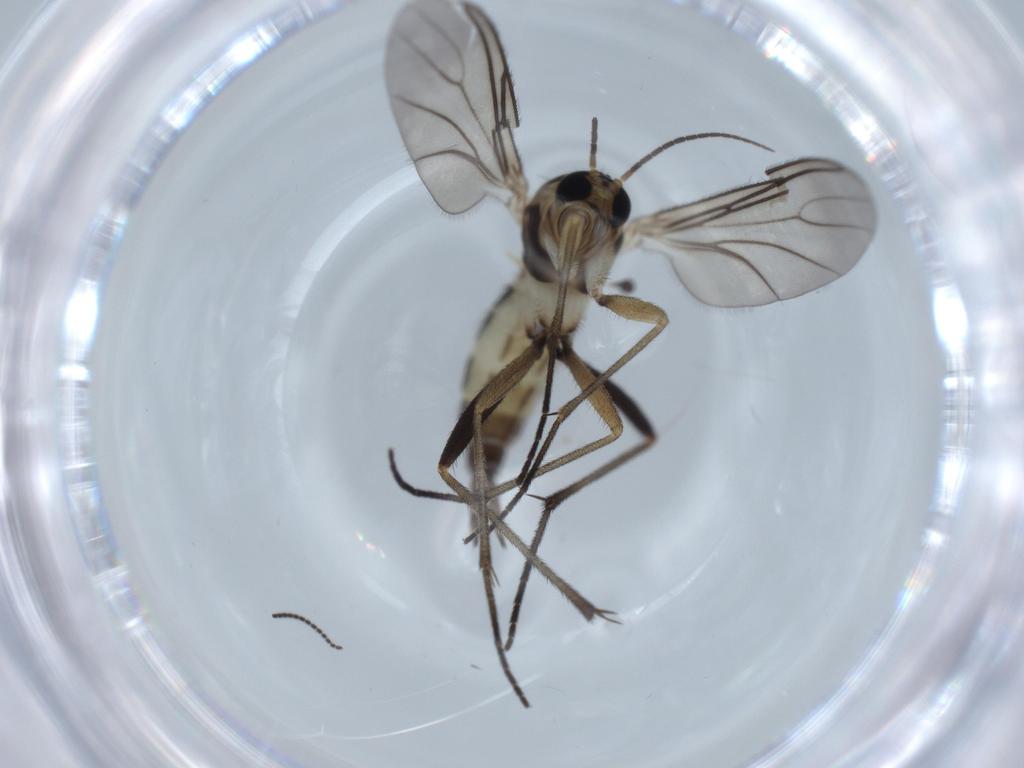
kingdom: Animalia
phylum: Arthropoda
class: Insecta
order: Diptera
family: Sciaridae
